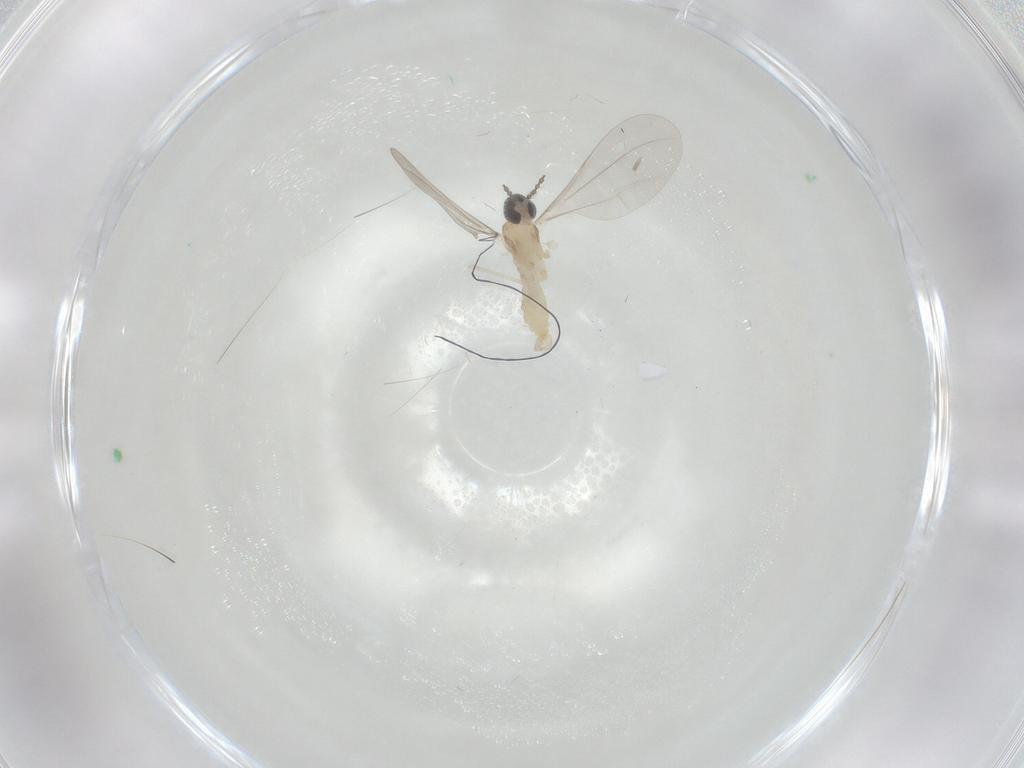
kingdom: Animalia
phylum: Arthropoda
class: Insecta
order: Diptera
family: Cecidomyiidae
